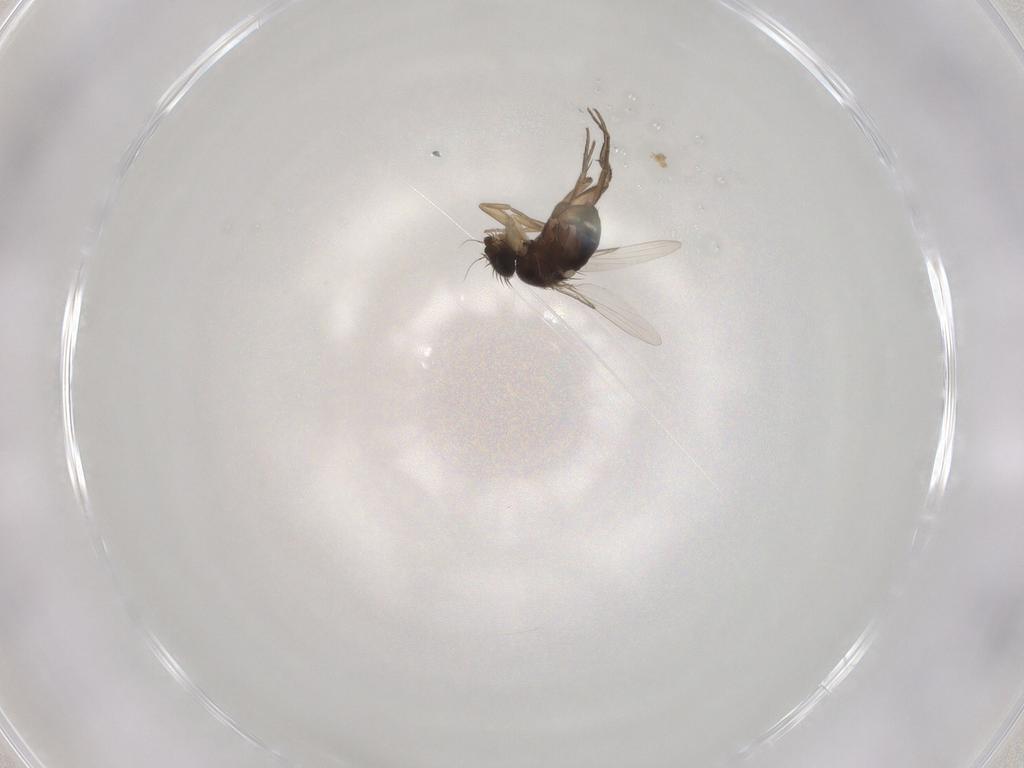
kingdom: Animalia
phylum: Arthropoda
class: Insecta
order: Diptera
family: Phoridae
